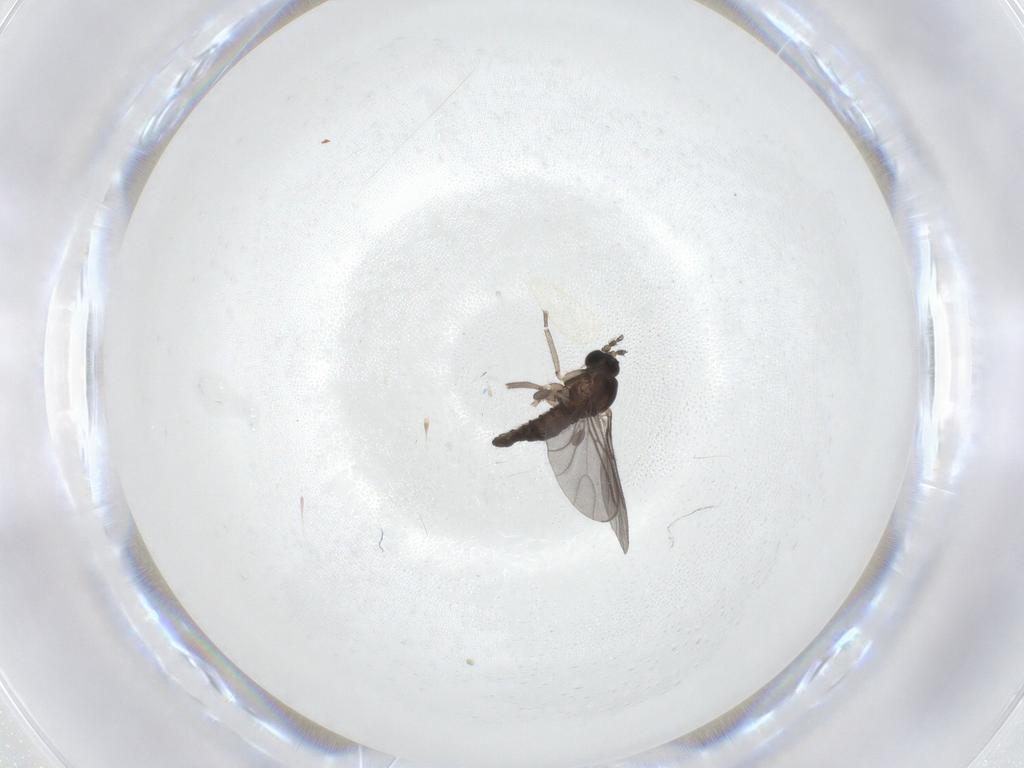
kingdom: Animalia
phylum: Arthropoda
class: Insecta
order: Diptera
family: Sciaridae
